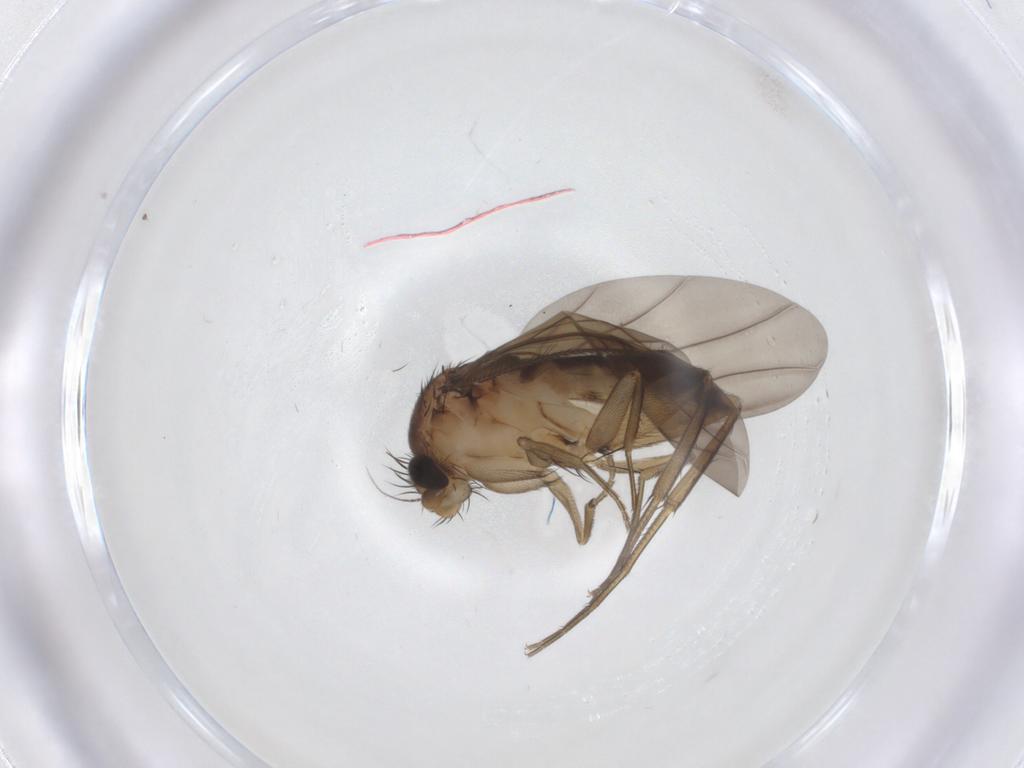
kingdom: Animalia
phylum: Arthropoda
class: Insecta
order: Diptera
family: Phoridae
